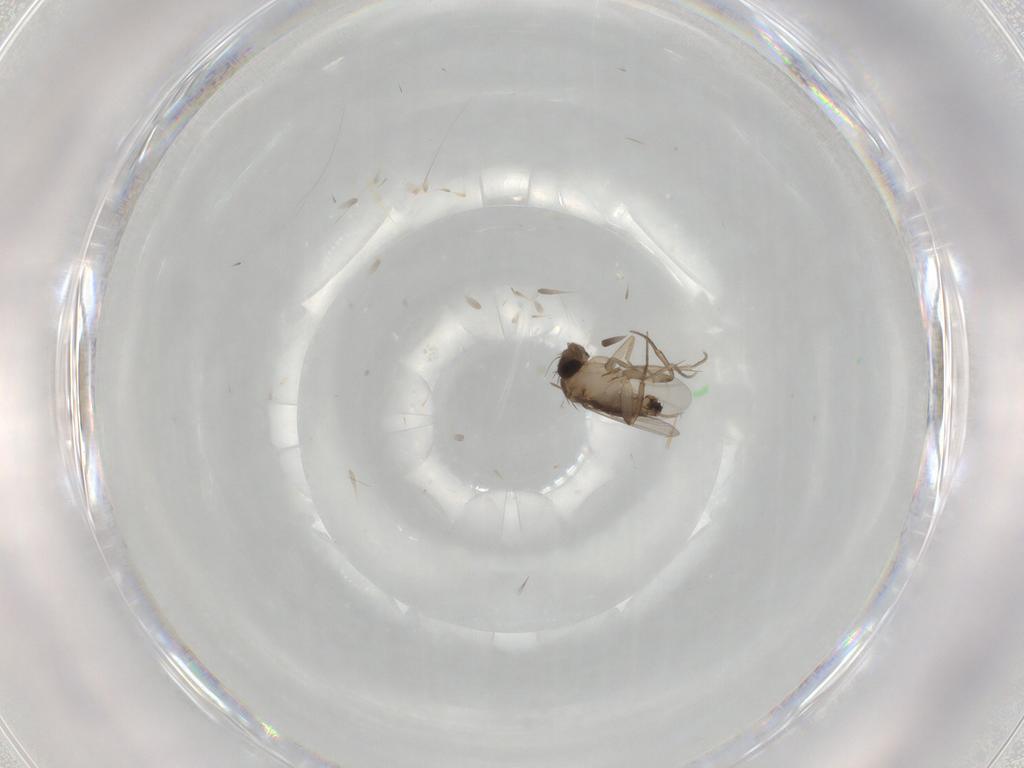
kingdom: Animalia
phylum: Arthropoda
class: Insecta
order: Diptera
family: Phoridae
